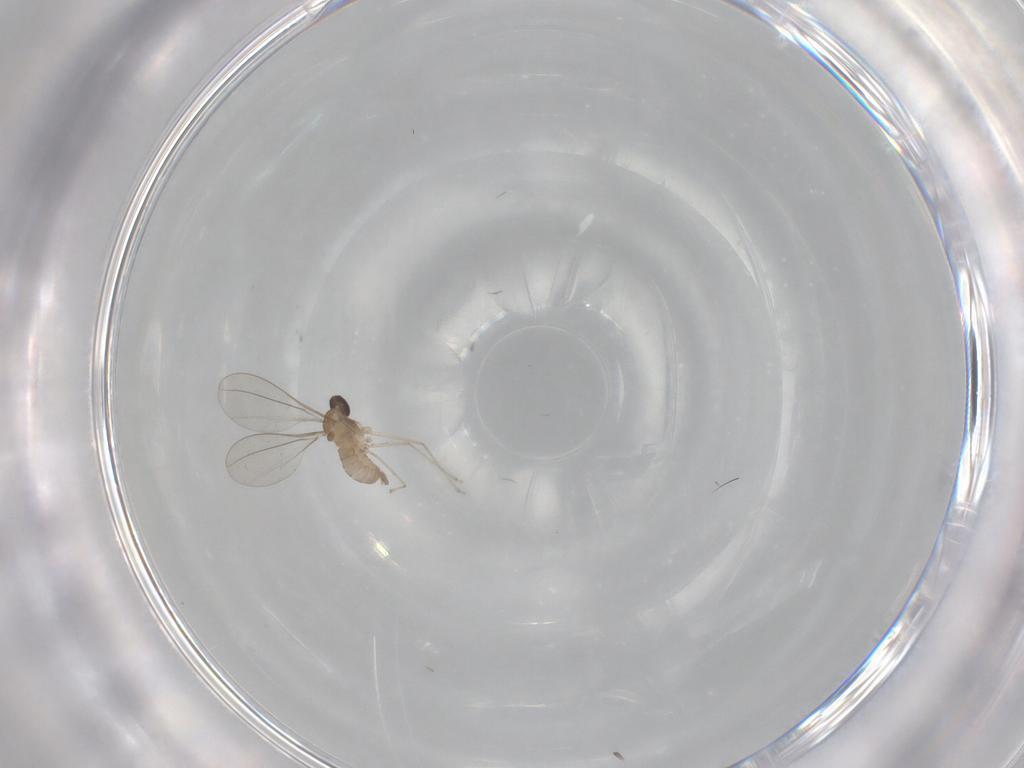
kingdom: Animalia
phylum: Arthropoda
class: Insecta
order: Diptera
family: Cecidomyiidae
